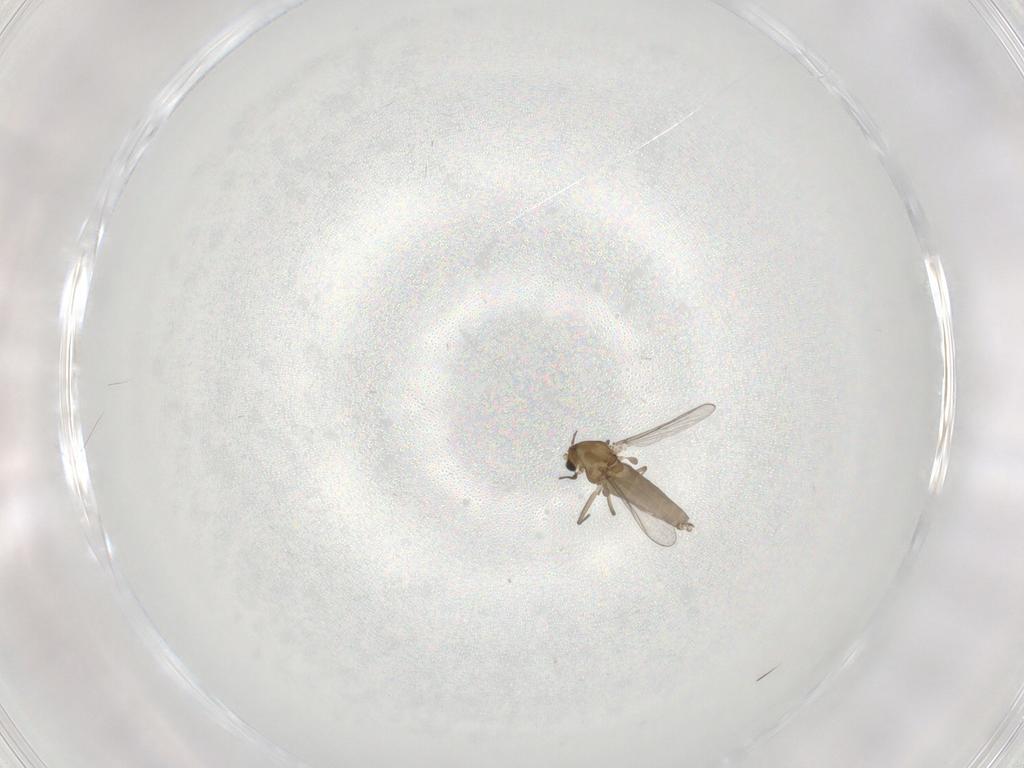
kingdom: Animalia
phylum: Arthropoda
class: Insecta
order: Diptera
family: Chironomidae
